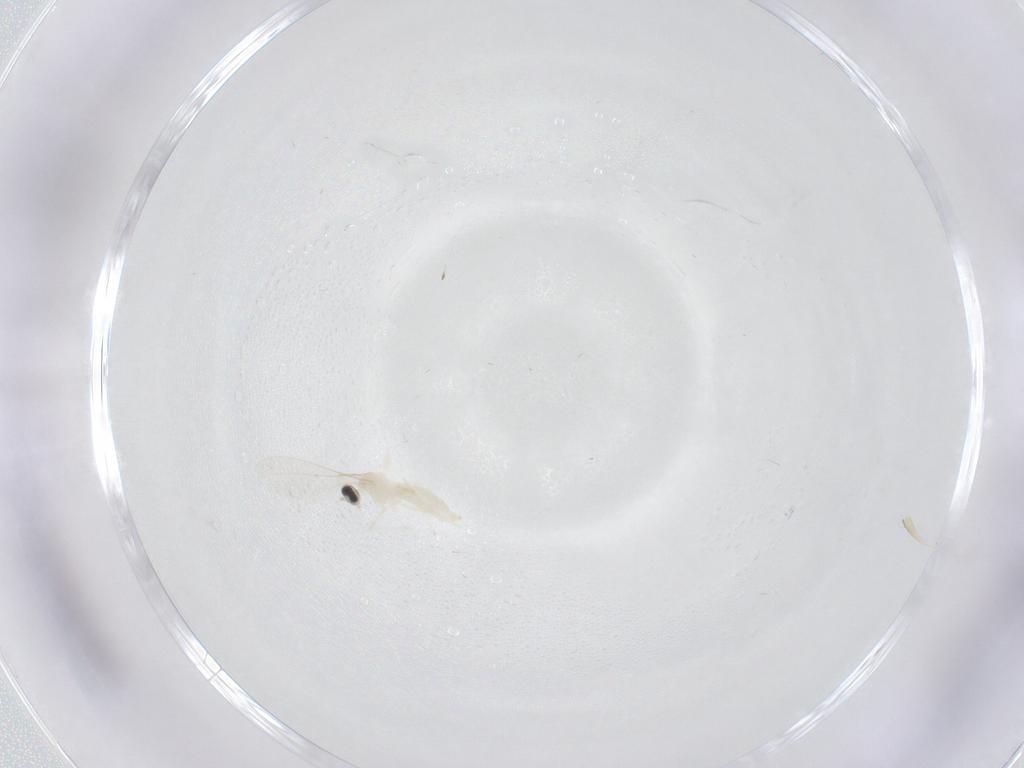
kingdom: Animalia
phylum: Arthropoda
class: Insecta
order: Diptera
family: Cecidomyiidae
